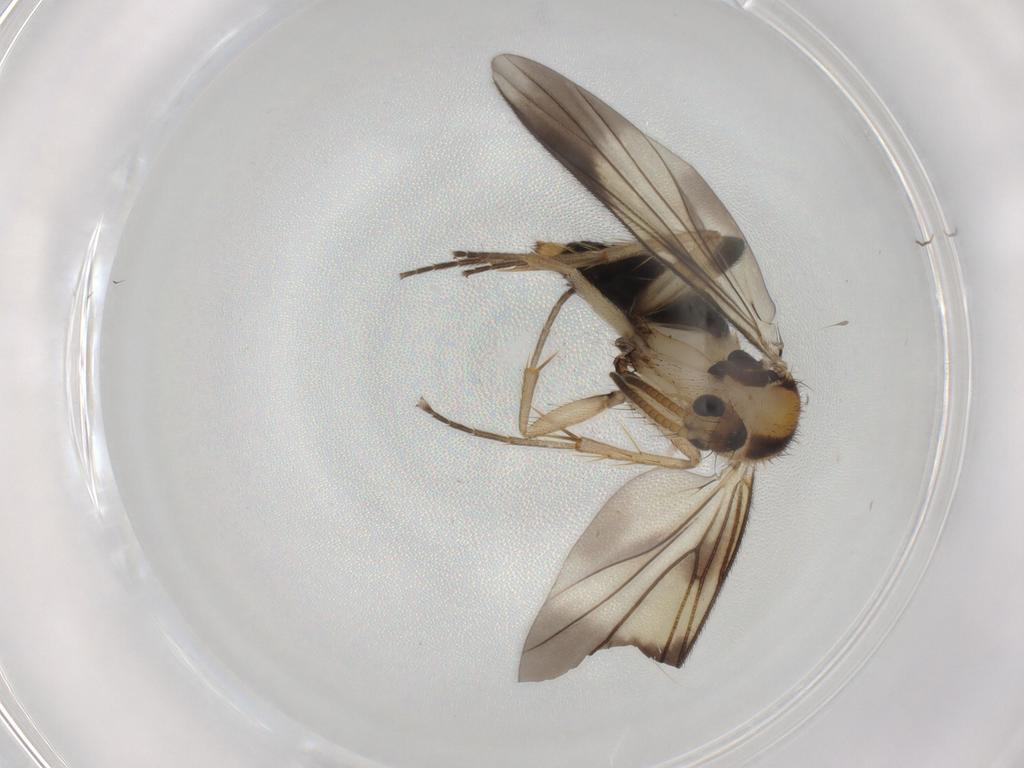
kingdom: Animalia
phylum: Arthropoda
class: Insecta
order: Diptera
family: Mycetophilidae
